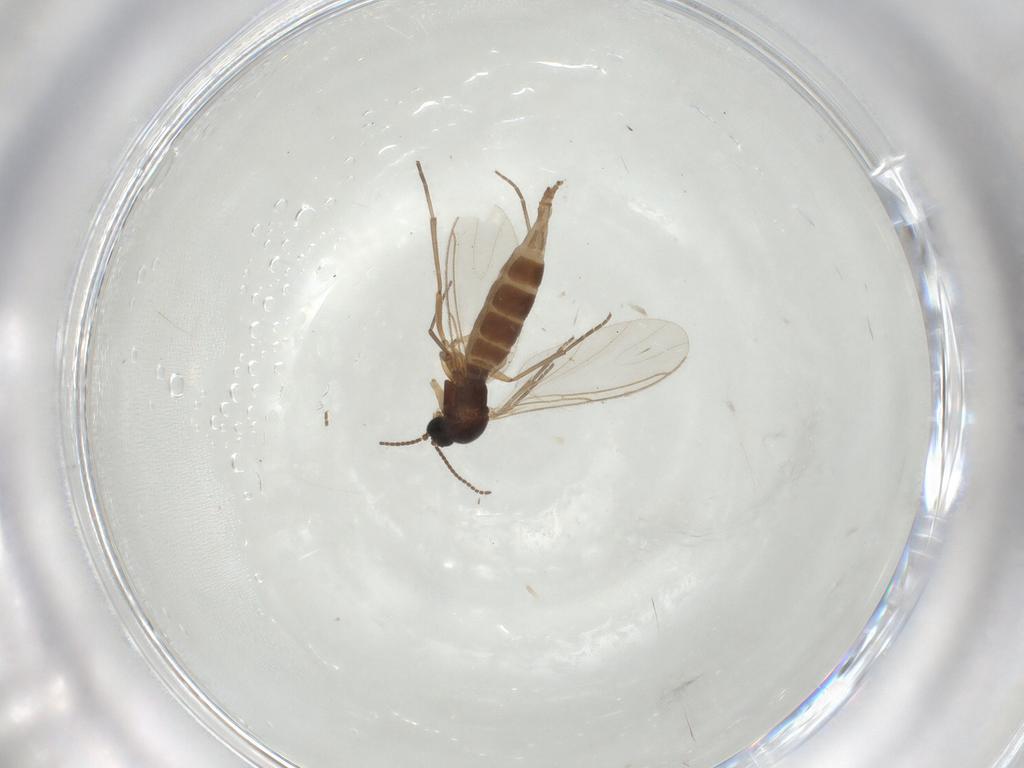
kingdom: Animalia
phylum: Arthropoda
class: Insecta
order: Diptera
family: Sciaridae
